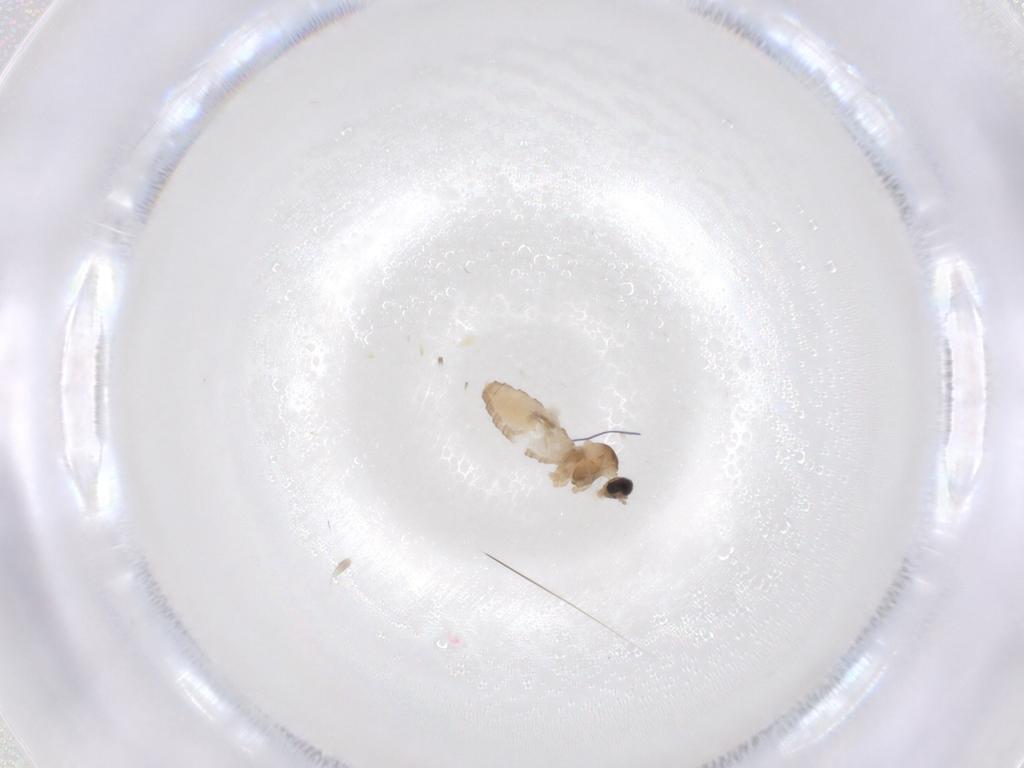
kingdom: Animalia
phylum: Arthropoda
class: Insecta
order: Diptera
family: Cecidomyiidae
